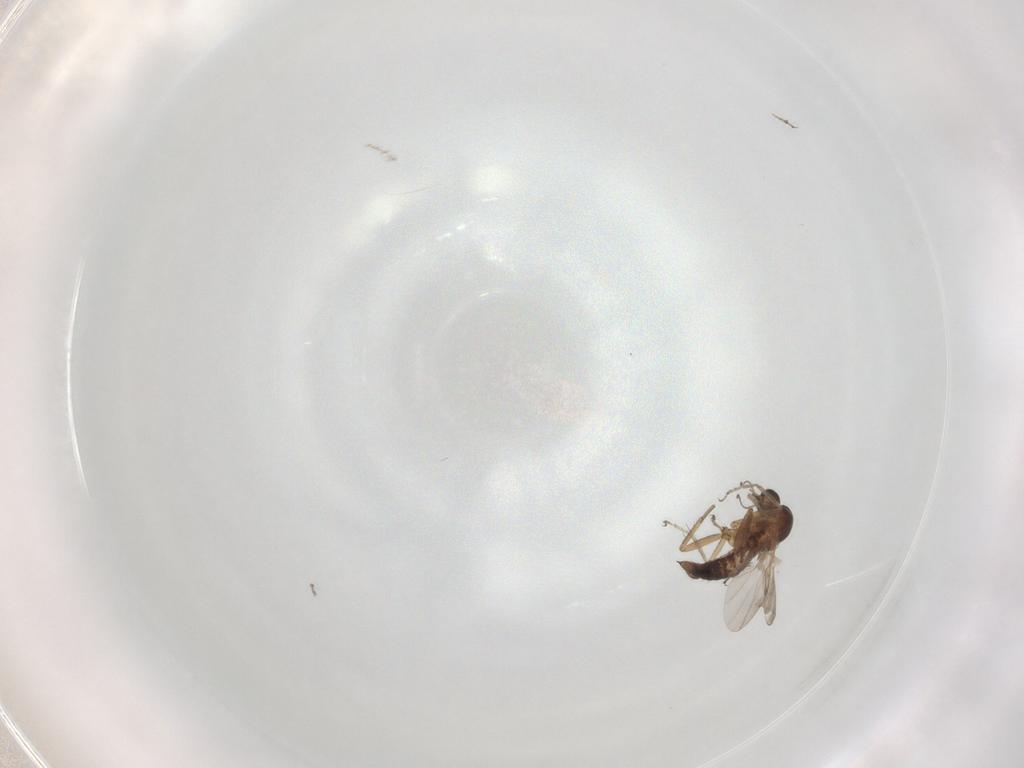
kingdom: Animalia
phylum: Arthropoda
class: Insecta
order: Diptera
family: Ceratopogonidae
